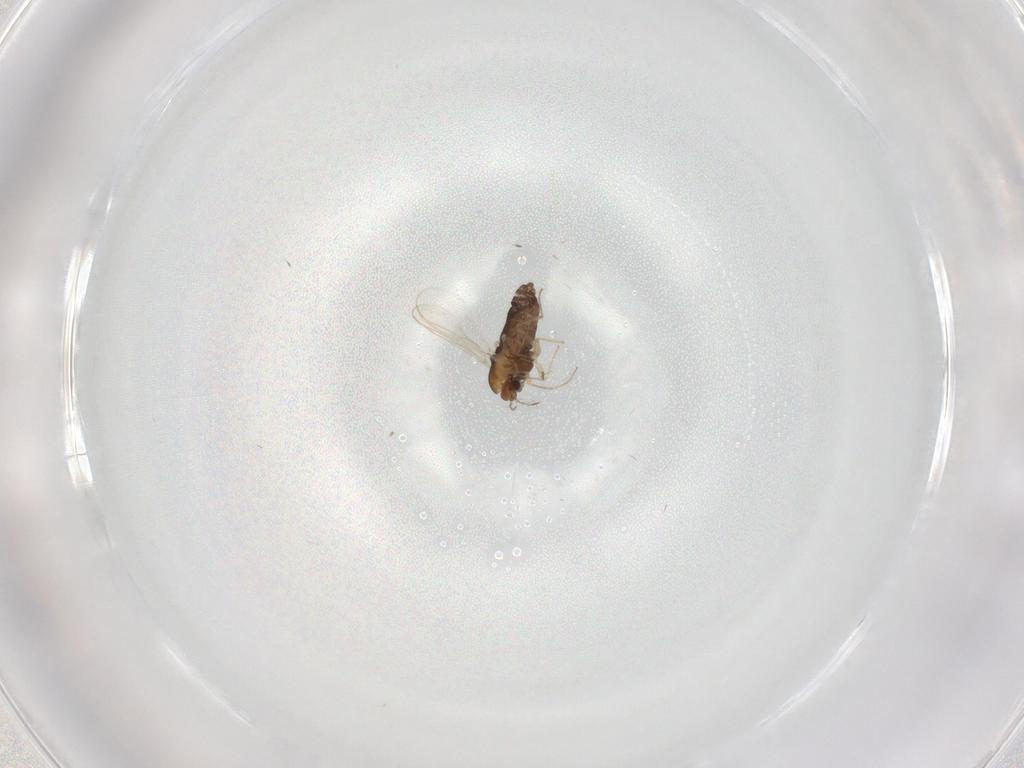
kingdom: Animalia
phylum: Arthropoda
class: Insecta
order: Diptera
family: Chironomidae
